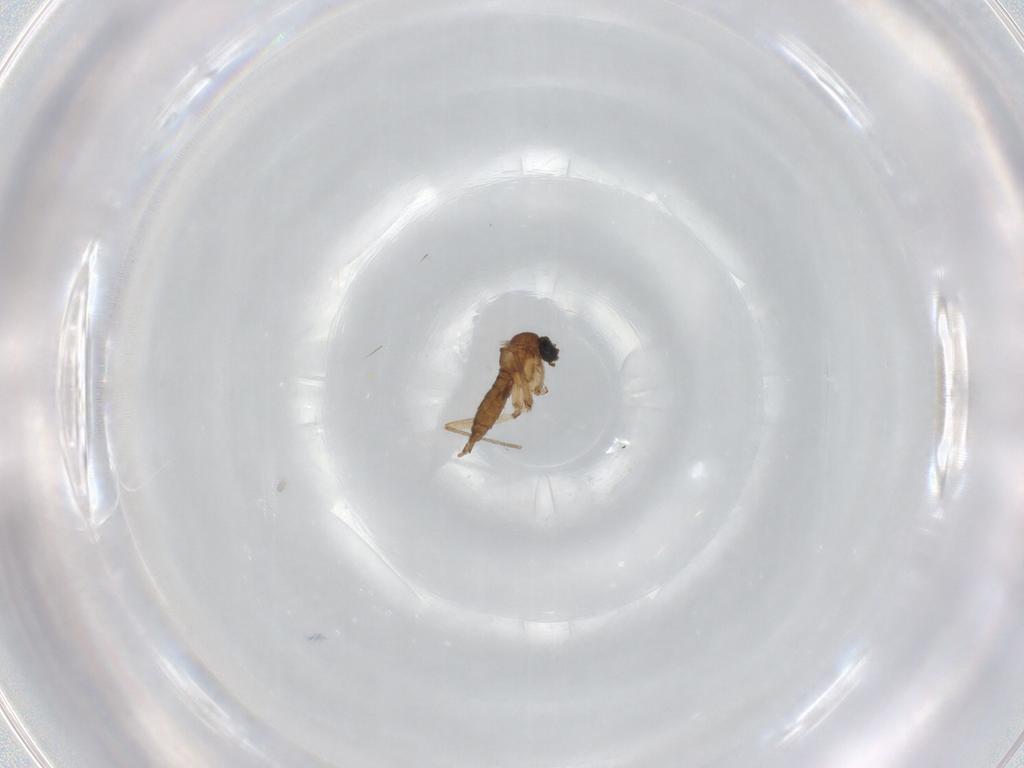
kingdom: Animalia
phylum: Arthropoda
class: Insecta
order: Diptera
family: Sciaridae
